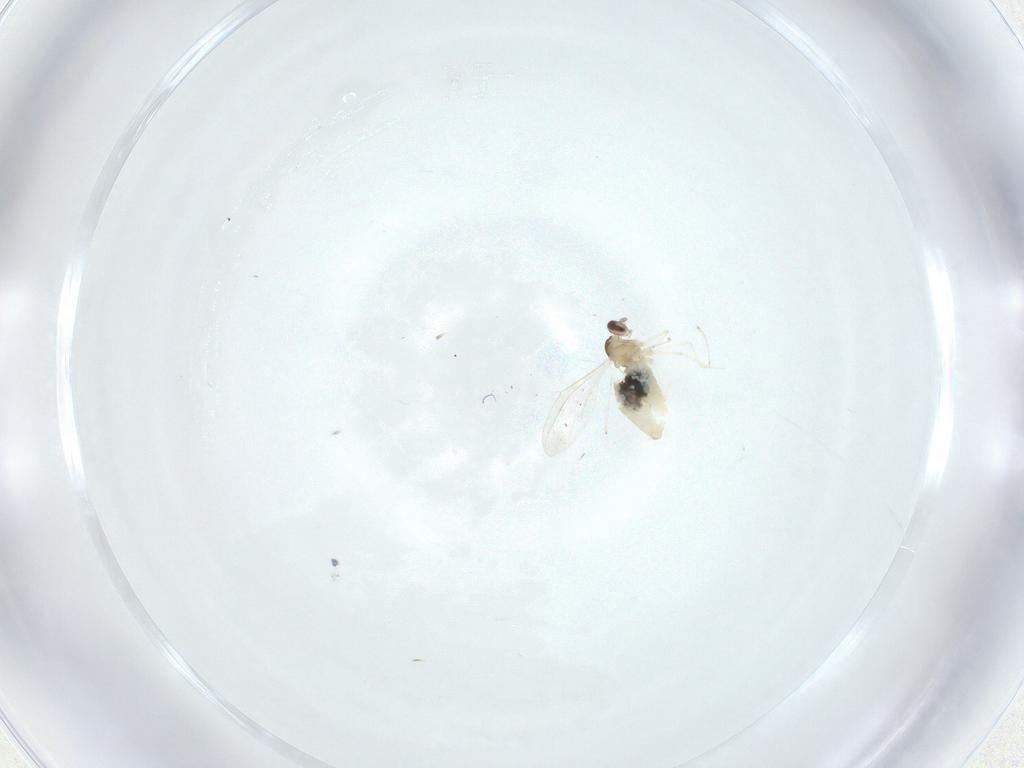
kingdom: Animalia
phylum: Arthropoda
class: Insecta
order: Diptera
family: Cecidomyiidae
